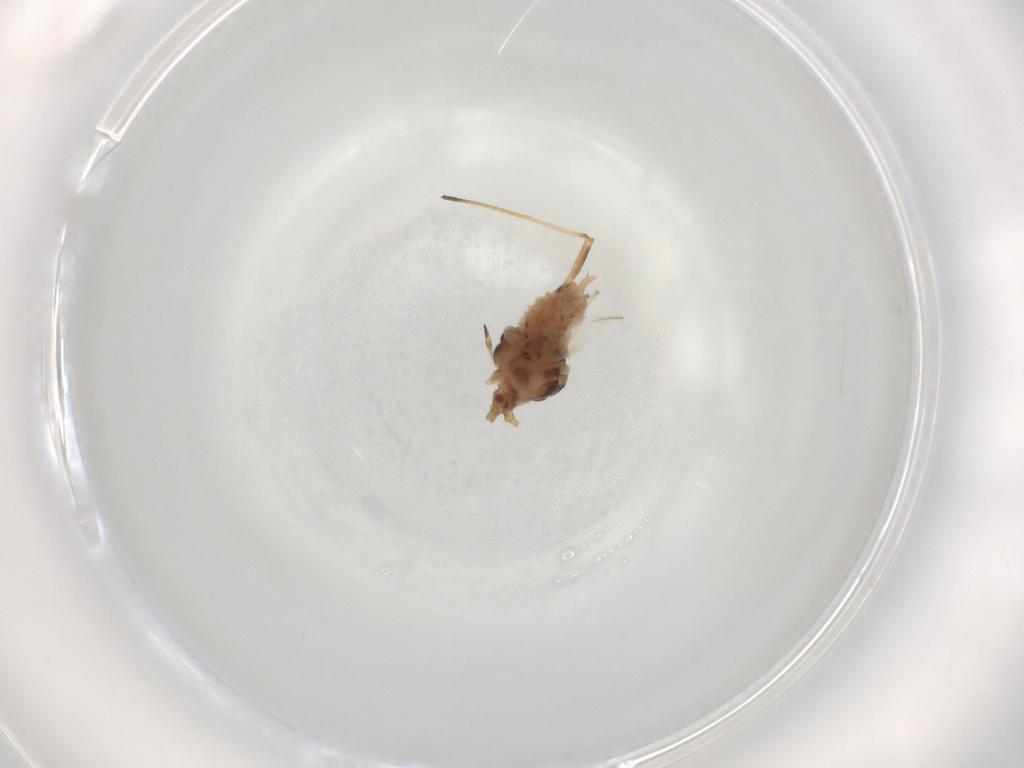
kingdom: Animalia
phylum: Arthropoda
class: Insecta
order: Hemiptera
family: Aphididae
